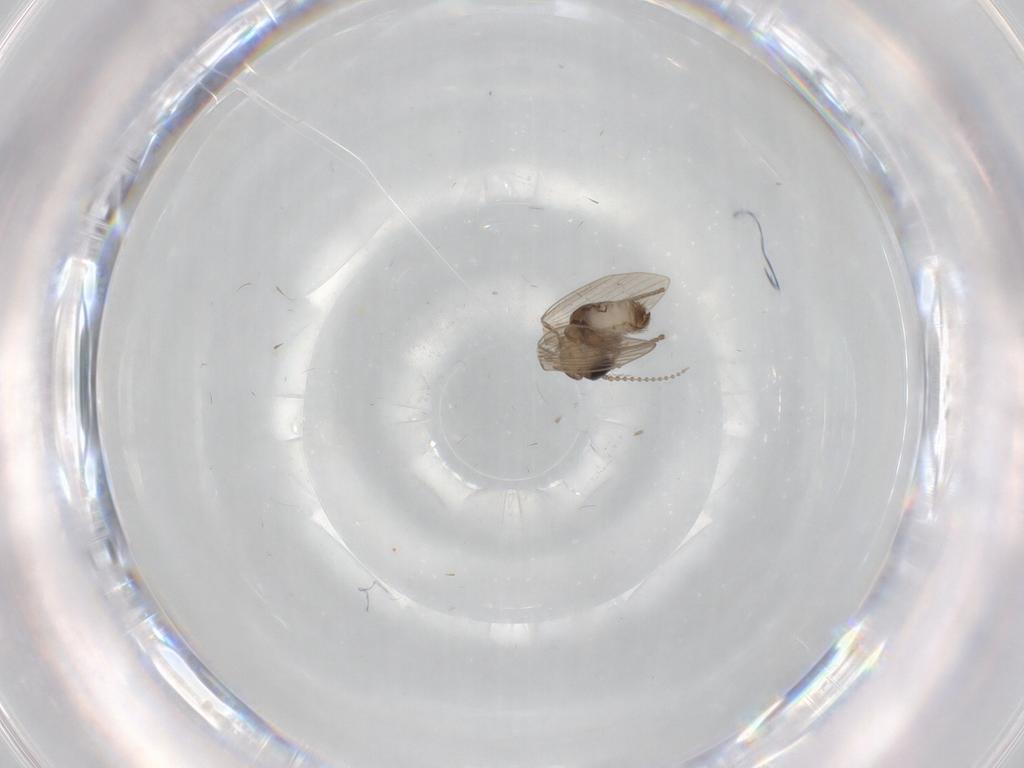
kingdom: Animalia
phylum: Arthropoda
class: Insecta
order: Diptera
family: Psychodidae
